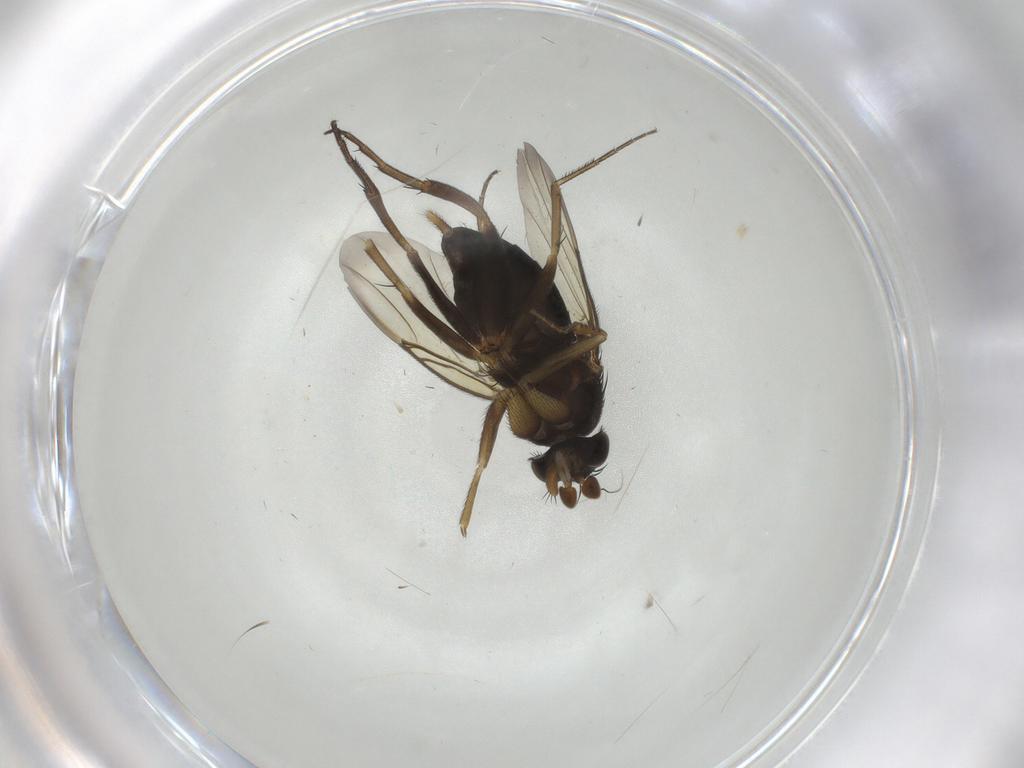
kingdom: Animalia
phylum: Arthropoda
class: Insecta
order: Diptera
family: Phoridae
